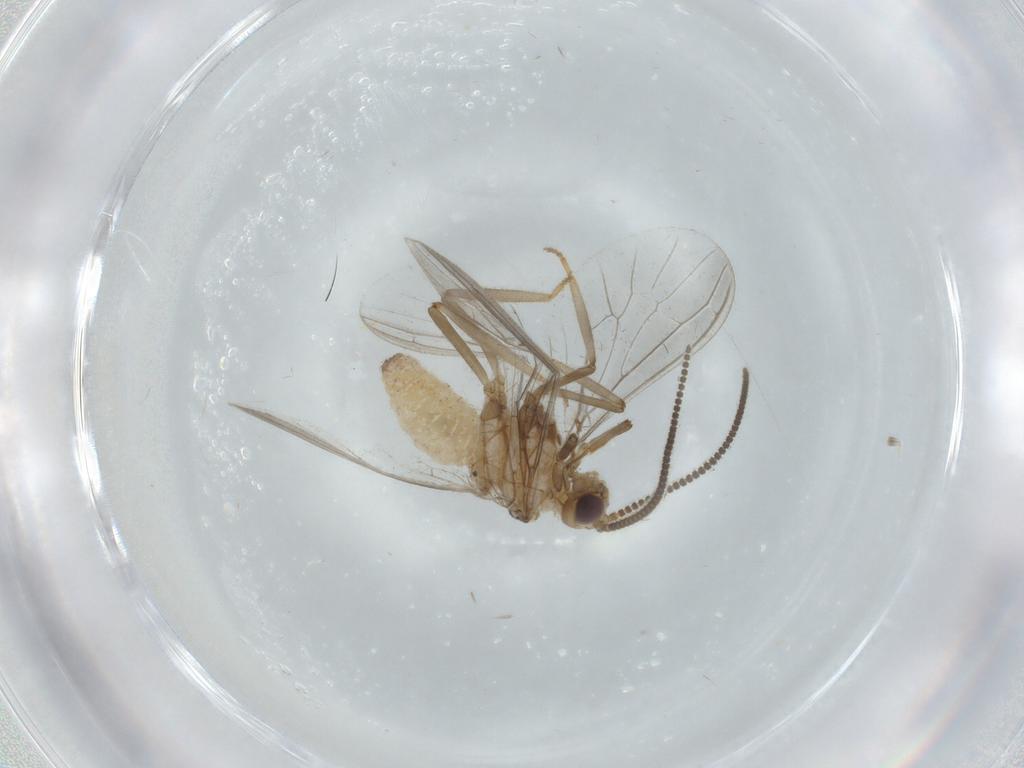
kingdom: Animalia
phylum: Arthropoda
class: Insecta
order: Neuroptera
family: Coniopterygidae
